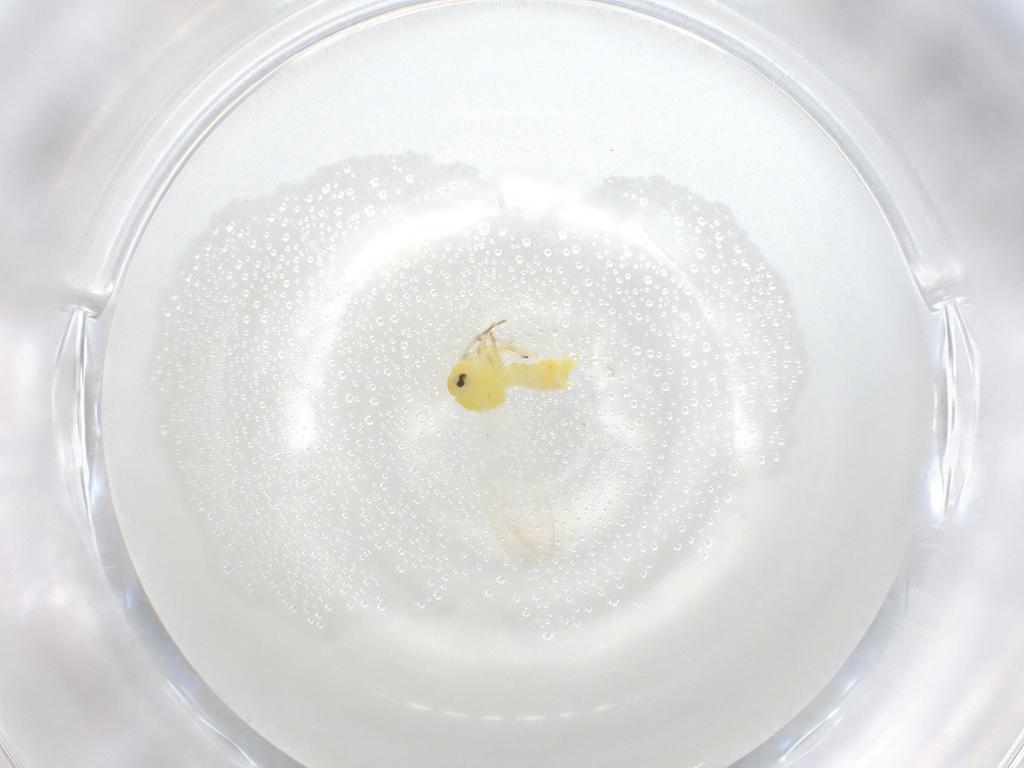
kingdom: Animalia
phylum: Arthropoda
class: Insecta
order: Hemiptera
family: Aleyrodidae
